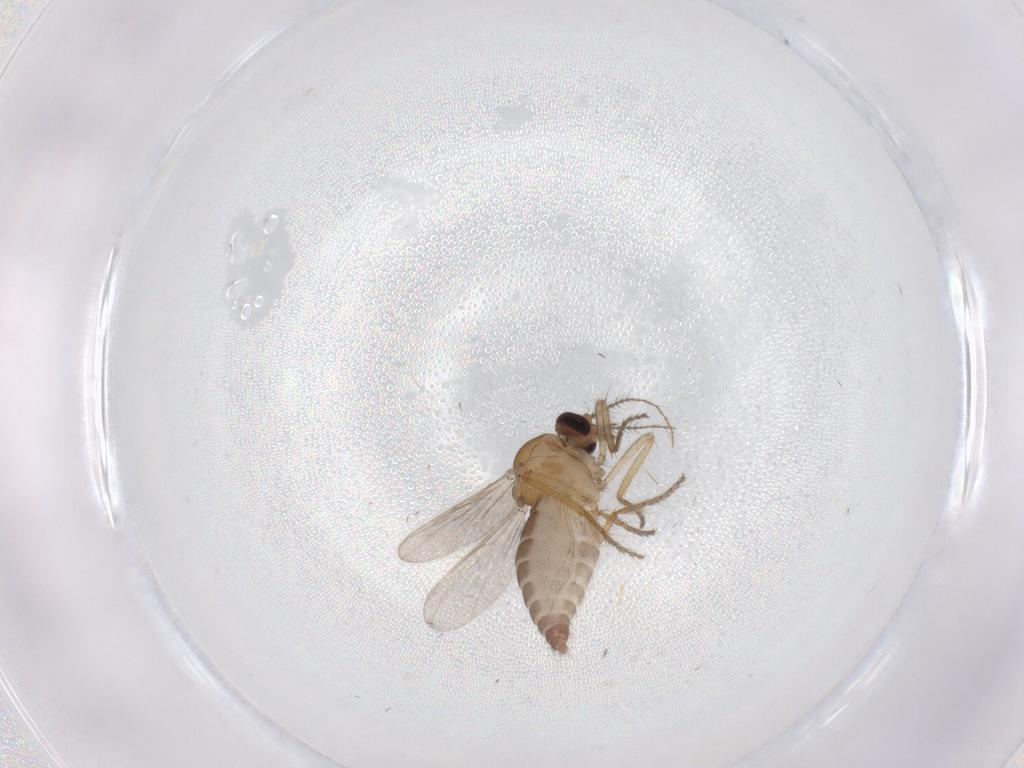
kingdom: Animalia
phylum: Arthropoda
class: Insecta
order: Diptera
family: Ceratopogonidae
